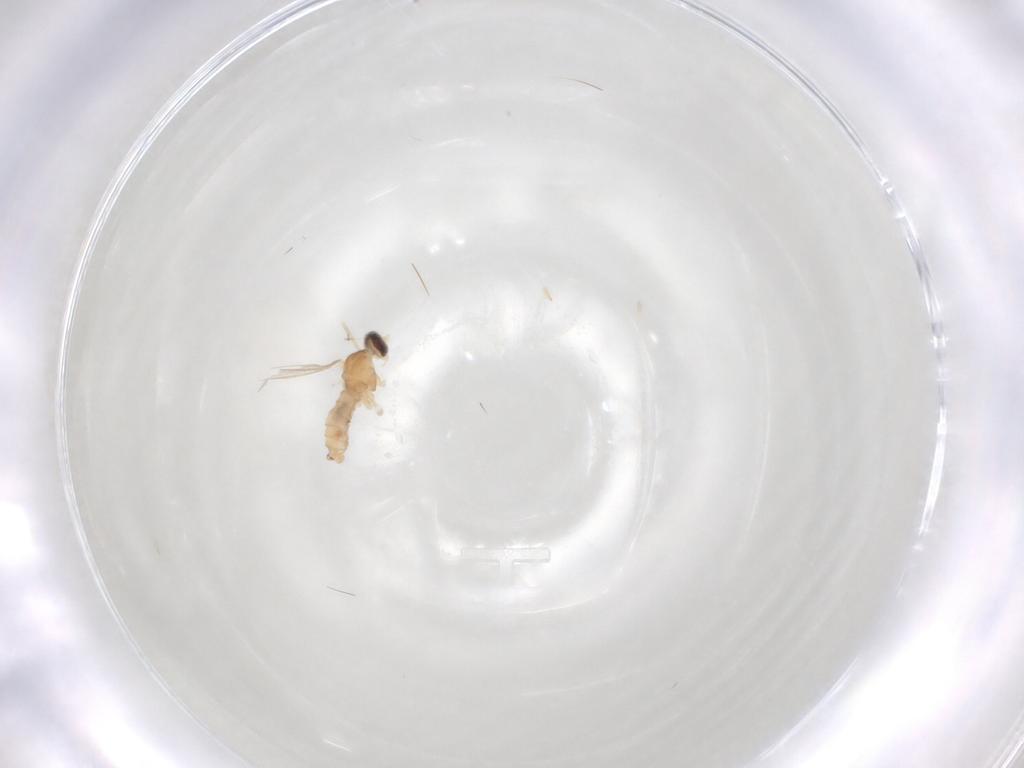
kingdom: Animalia
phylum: Arthropoda
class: Insecta
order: Diptera
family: Cecidomyiidae
